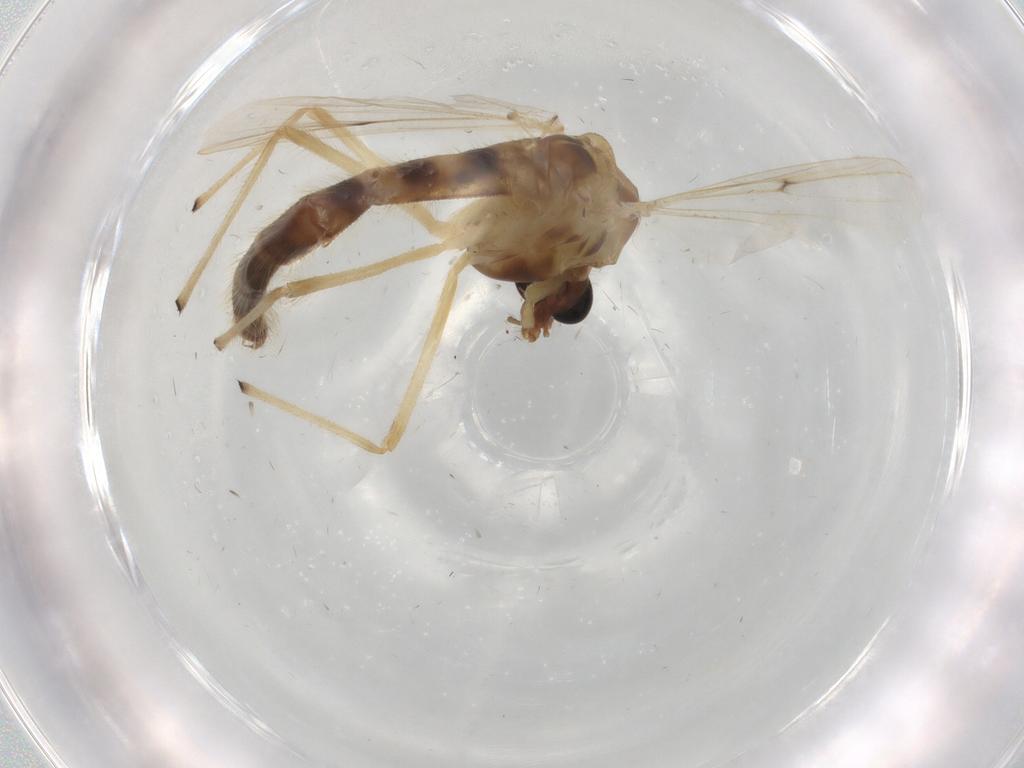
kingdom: Animalia
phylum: Arthropoda
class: Insecta
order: Diptera
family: Chironomidae
